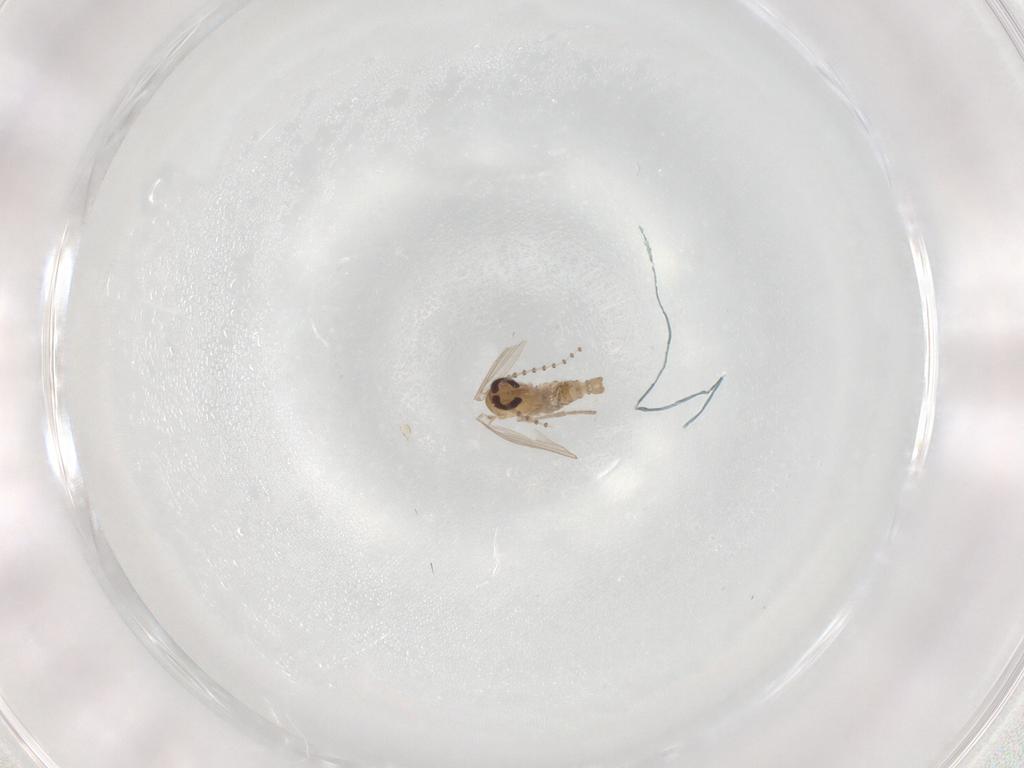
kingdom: Animalia
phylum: Arthropoda
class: Insecta
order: Diptera
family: Psychodidae
